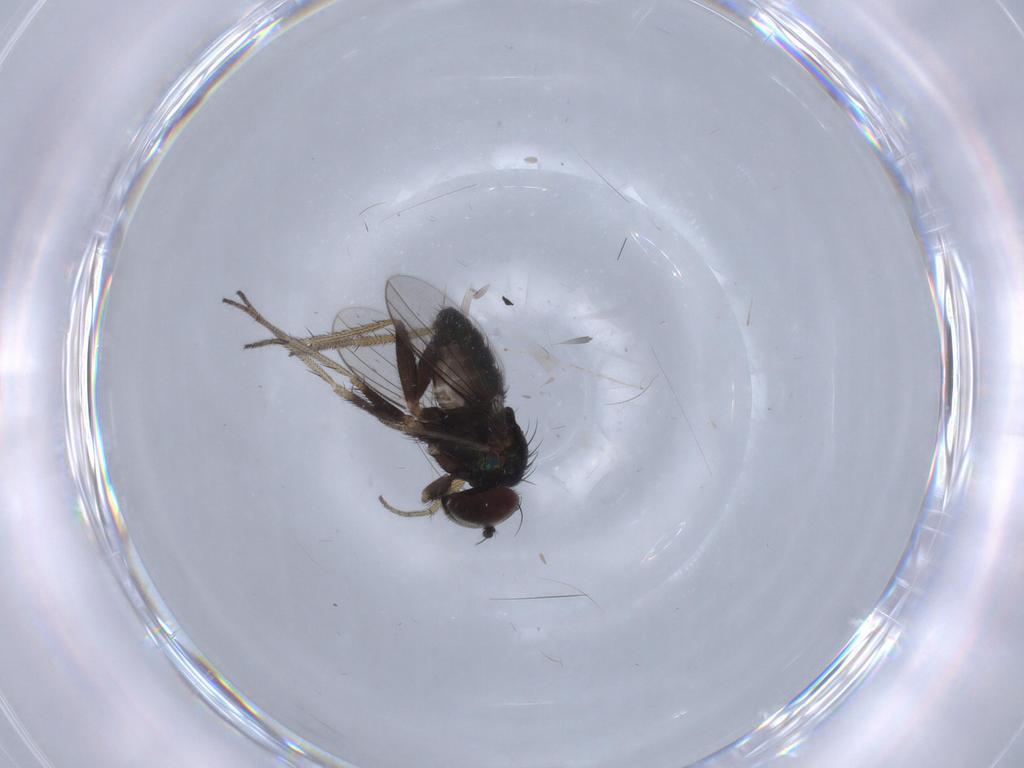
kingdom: Animalia
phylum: Arthropoda
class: Insecta
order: Diptera
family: Cecidomyiidae
